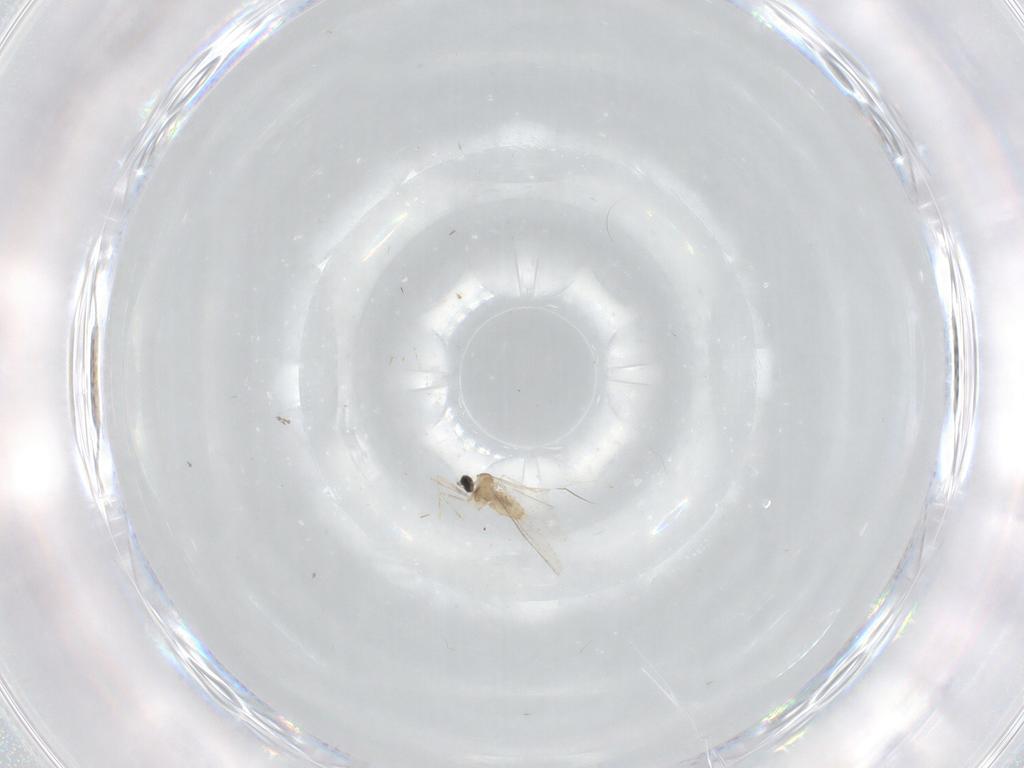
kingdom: Animalia
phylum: Arthropoda
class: Insecta
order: Diptera
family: Cecidomyiidae
